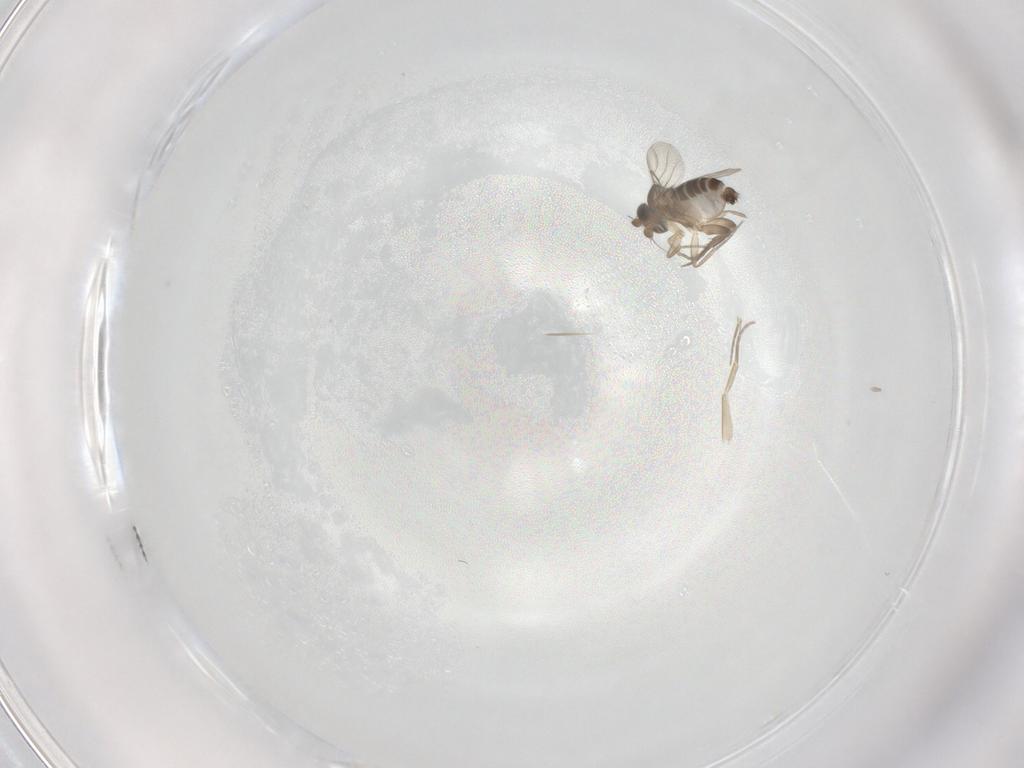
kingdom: Animalia
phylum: Arthropoda
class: Insecta
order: Diptera
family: Phoridae
